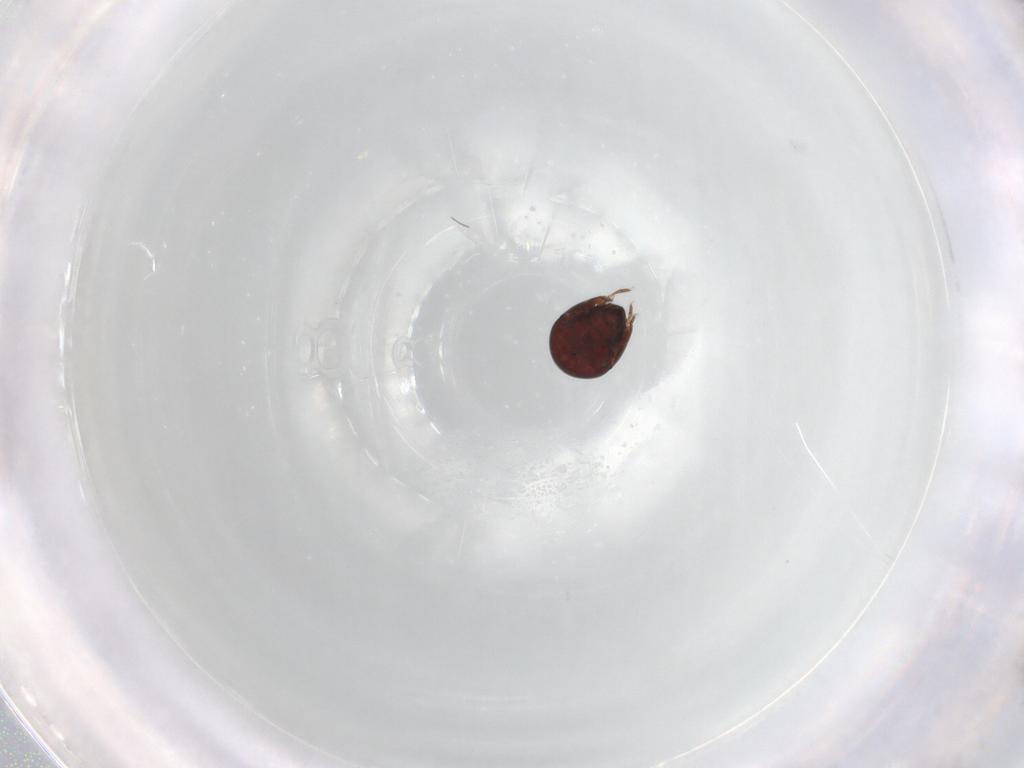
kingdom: Animalia
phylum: Arthropoda
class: Arachnida
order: Sarcoptiformes
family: Galumnidae
